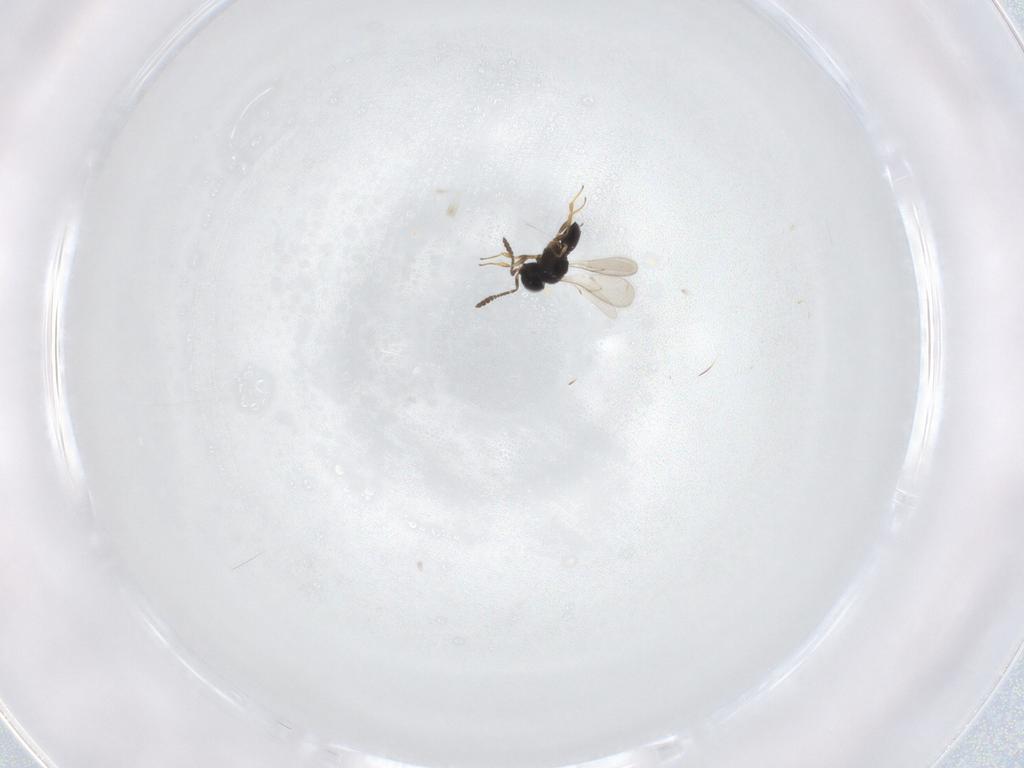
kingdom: Animalia
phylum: Arthropoda
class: Insecta
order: Hymenoptera
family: Scelionidae
